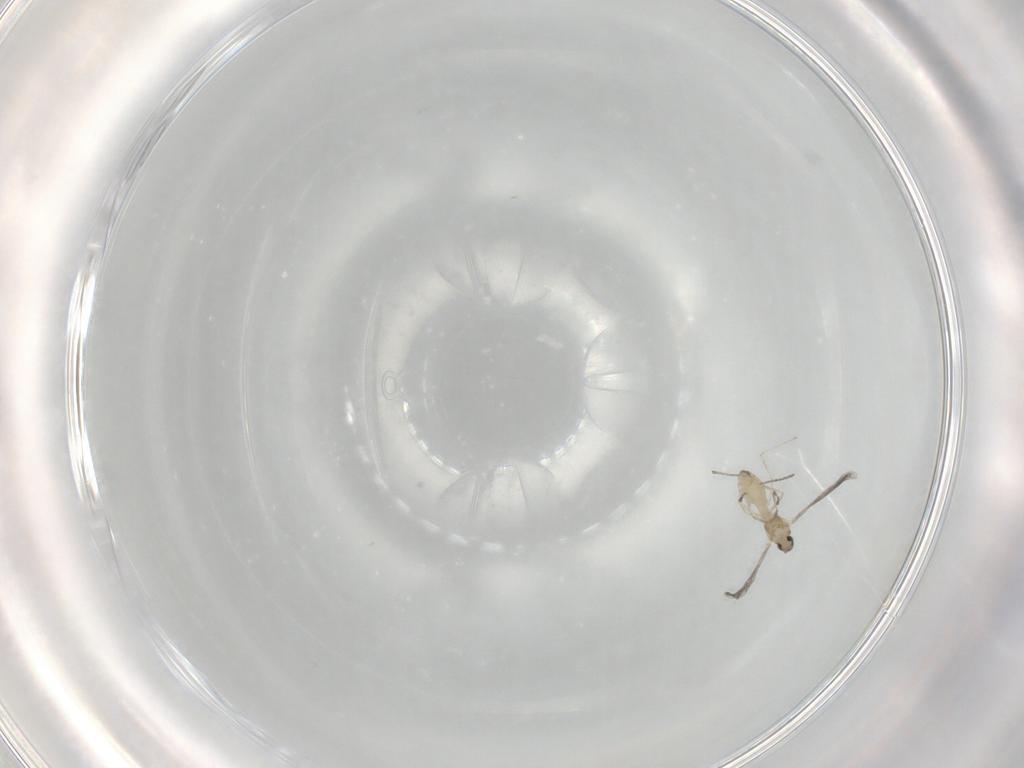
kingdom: Animalia
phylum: Arthropoda
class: Insecta
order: Diptera
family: Cecidomyiidae
